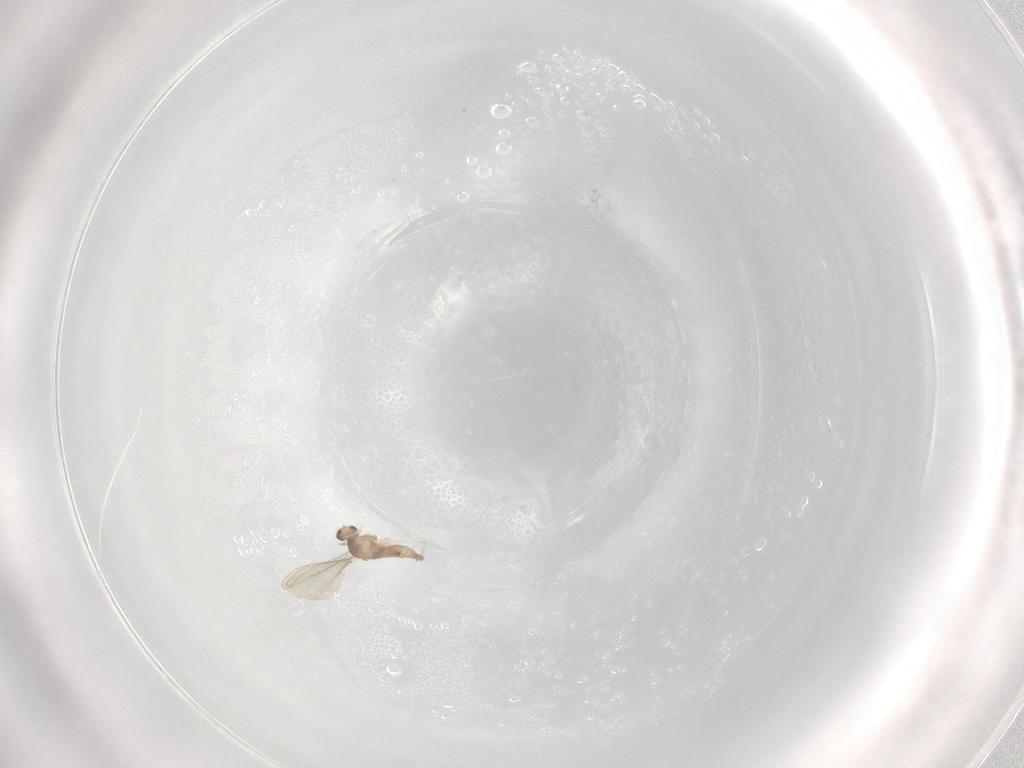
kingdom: Animalia
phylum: Arthropoda
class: Insecta
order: Diptera
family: Cecidomyiidae
